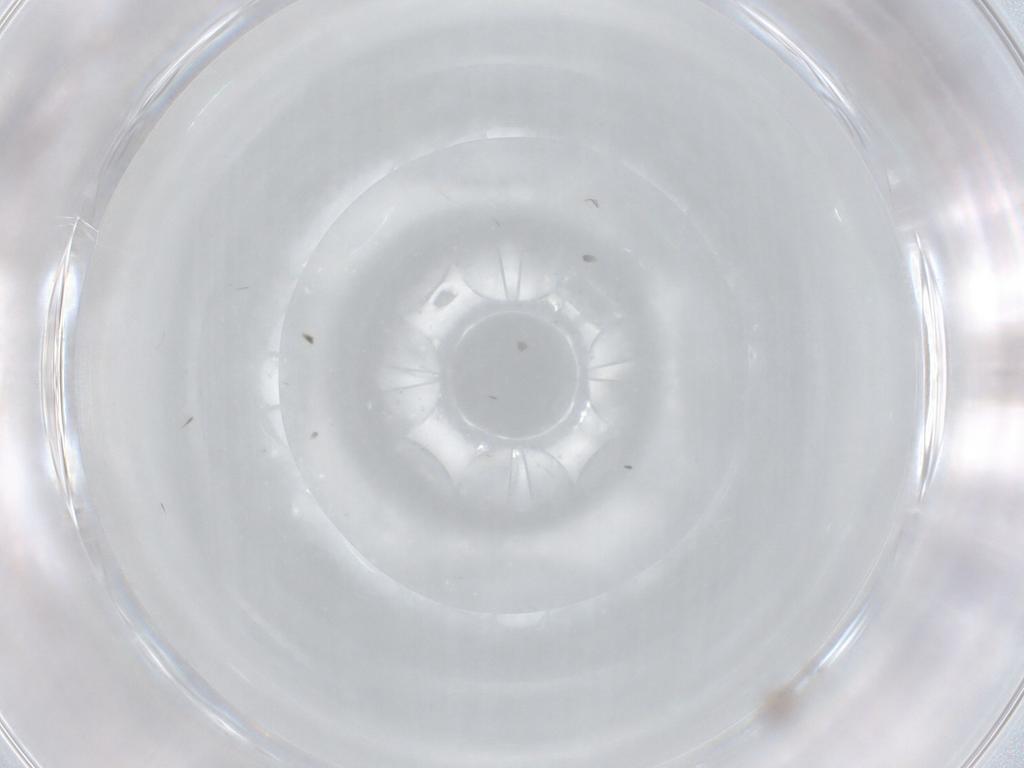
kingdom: Animalia
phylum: Arthropoda
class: Insecta
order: Diptera
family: Cecidomyiidae
